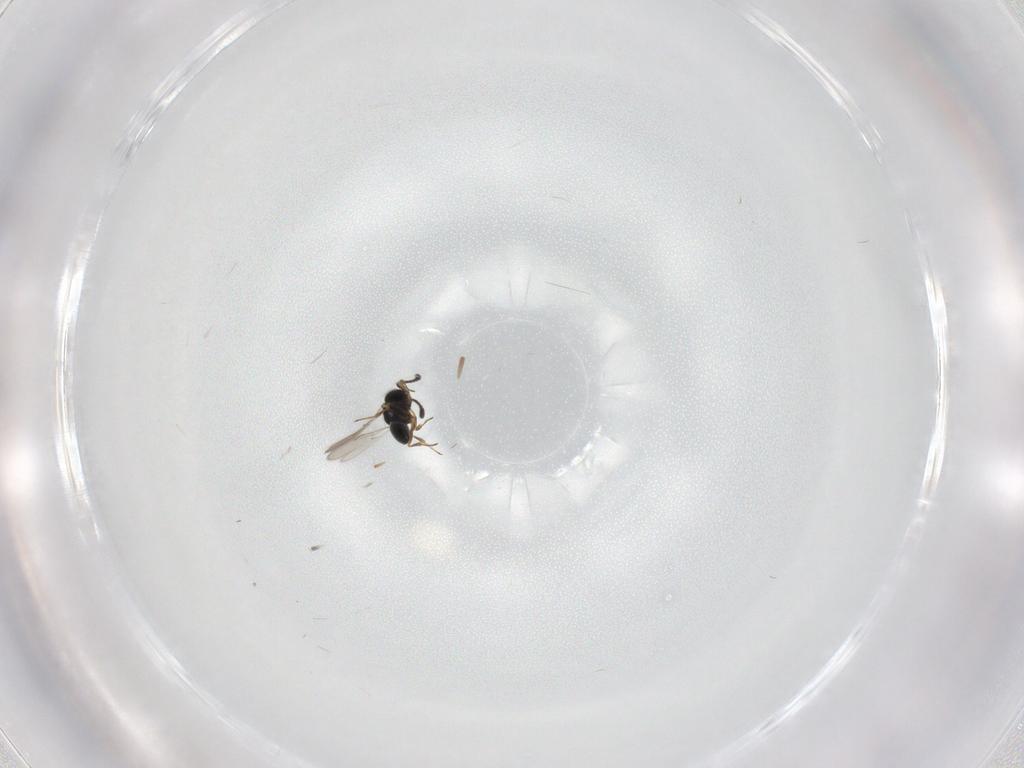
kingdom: Animalia
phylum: Arthropoda
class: Insecta
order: Hymenoptera
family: Scelionidae
